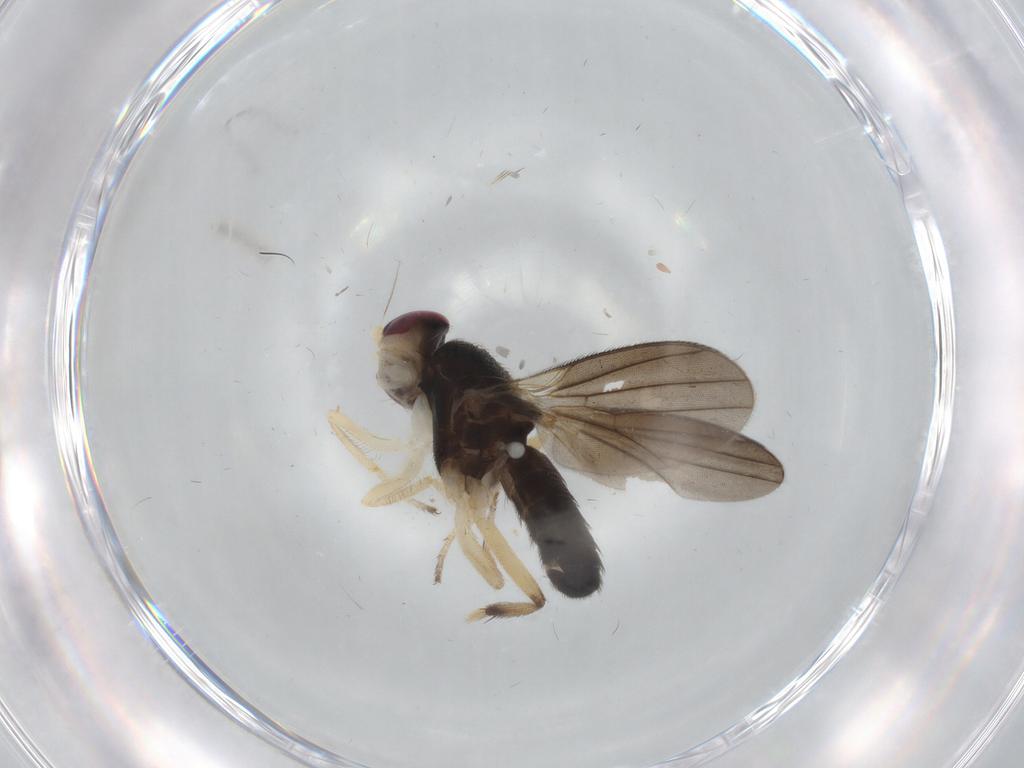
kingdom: Animalia
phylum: Arthropoda
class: Insecta
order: Diptera
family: Clusiidae
